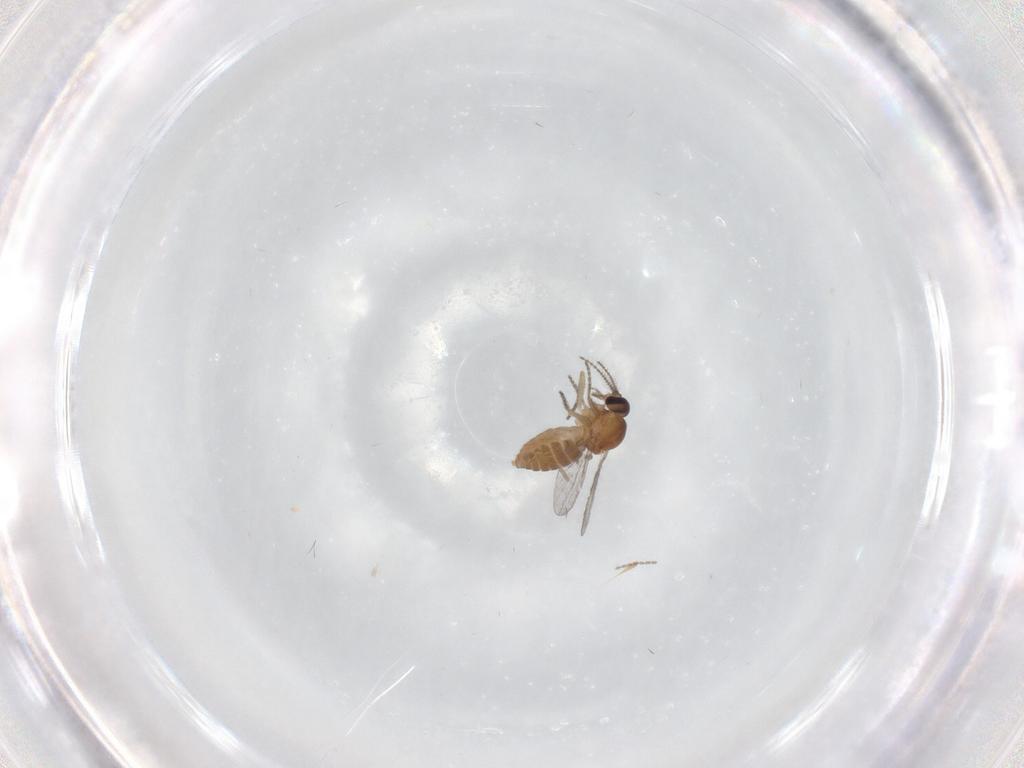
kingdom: Animalia
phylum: Arthropoda
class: Insecta
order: Diptera
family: Ceratopogonidae
